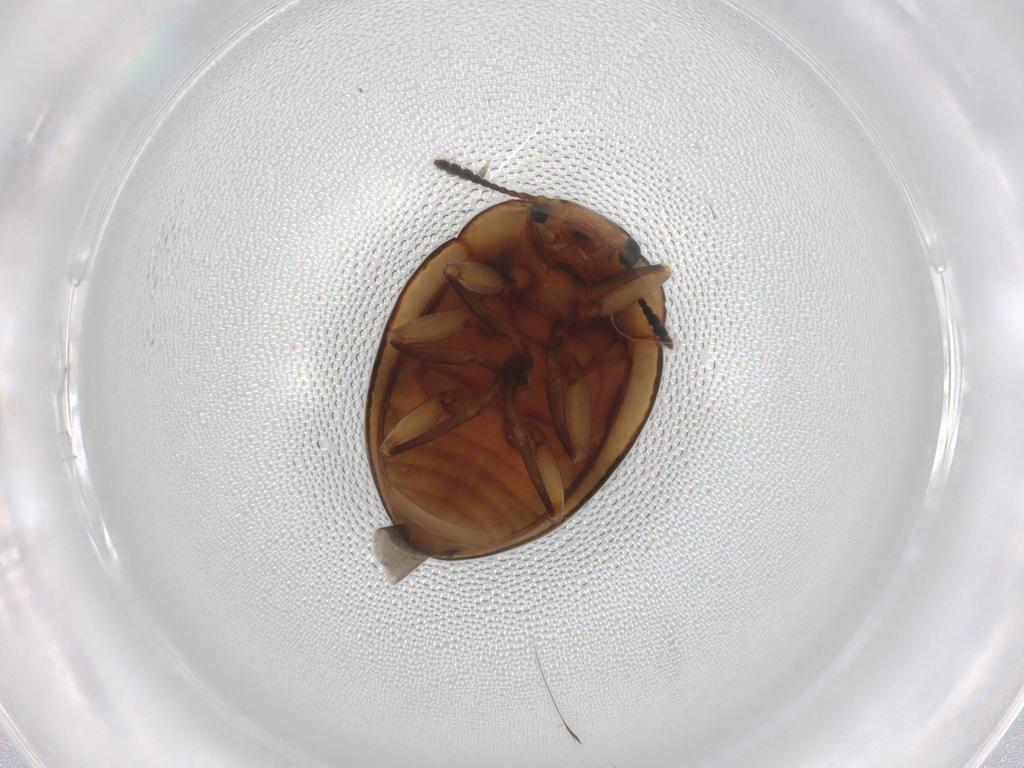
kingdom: Animalia
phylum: Arthropoda
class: Insecta
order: Coleoptera
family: Erotylidae
